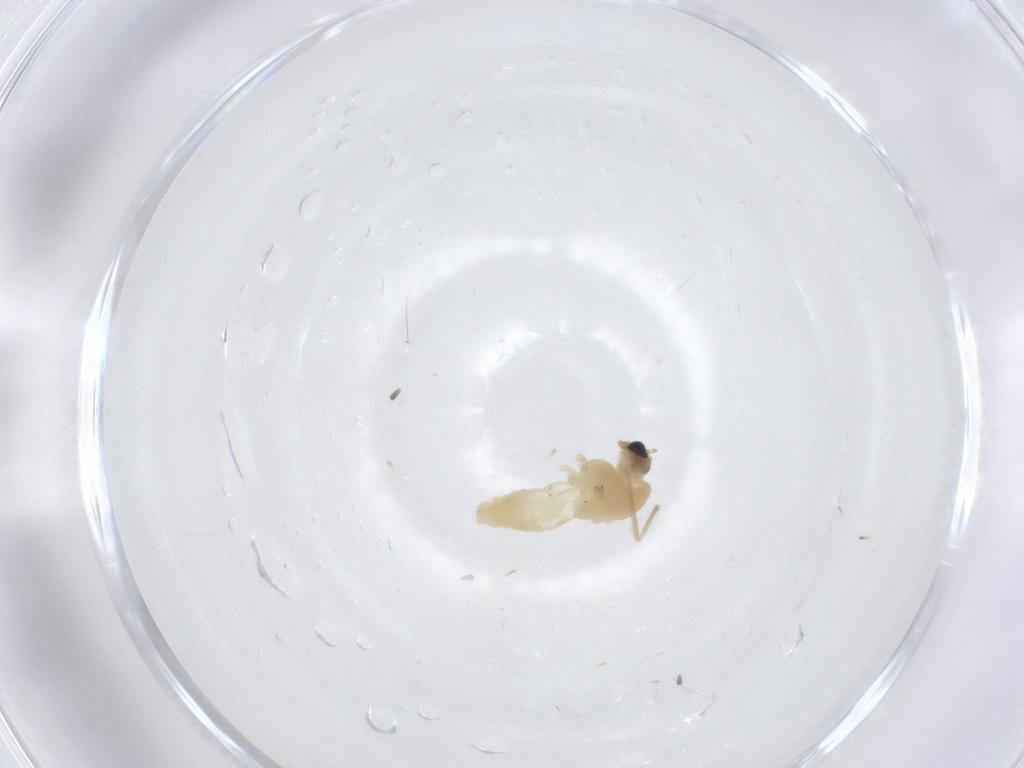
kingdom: Animalia
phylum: Arthropoda
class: Insecta
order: Diptera
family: Chironomidae
